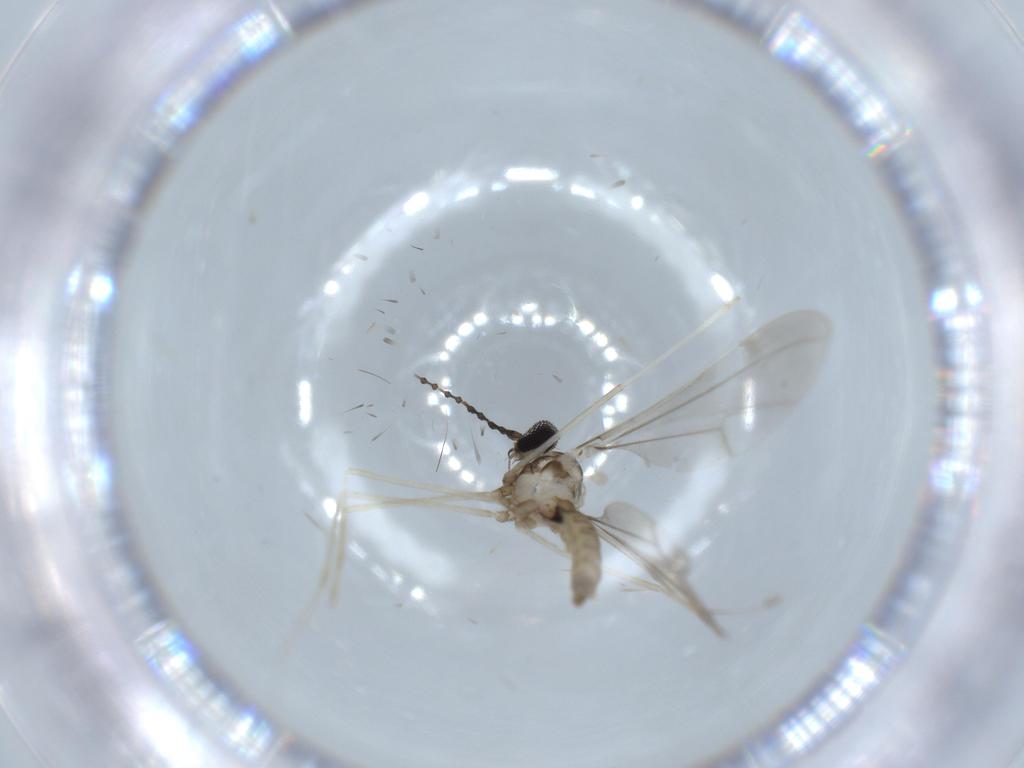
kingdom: Animalia
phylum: Arthropoda
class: Insecta
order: Diptera
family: Cecidomyiidae
